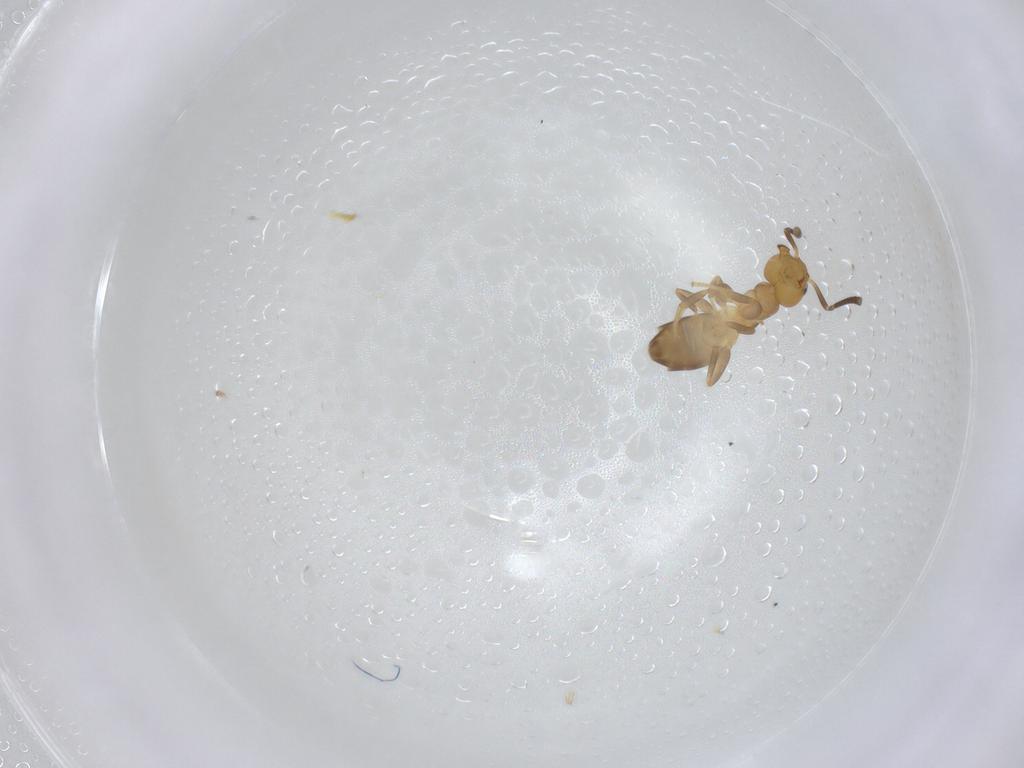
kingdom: Animalia
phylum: Arthropoda
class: Insecta
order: Hymenoptera
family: Formicidae
